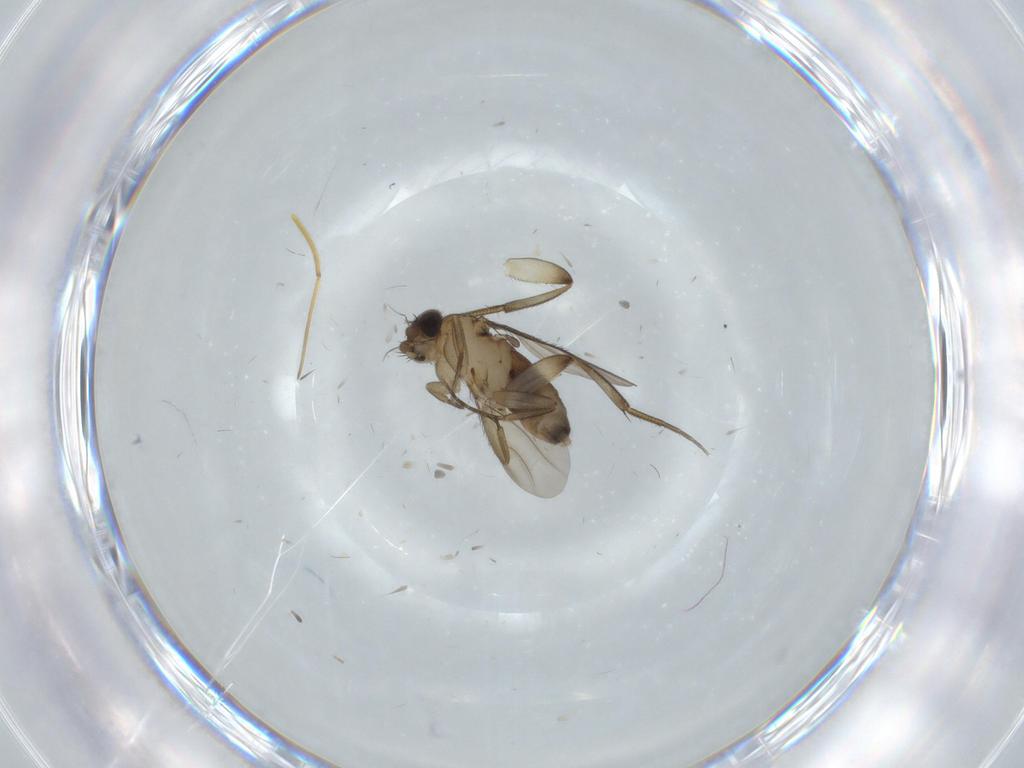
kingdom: Animalia
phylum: Arthropoda
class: Insecta
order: Diptera
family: Phoridae
